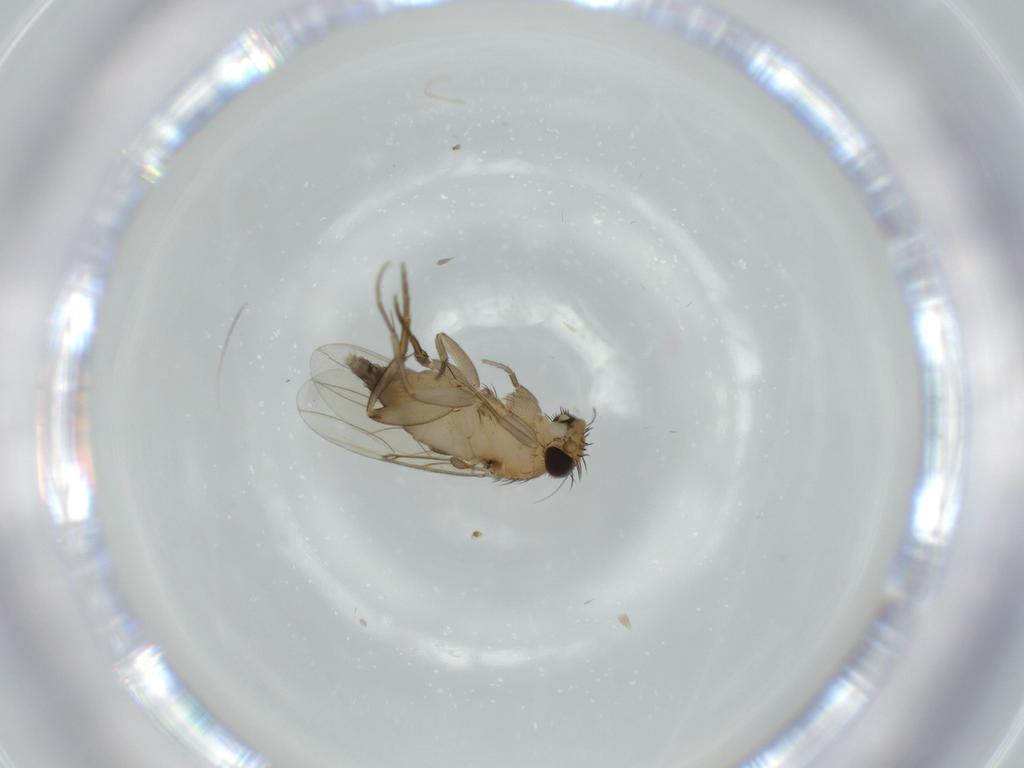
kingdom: Animalia
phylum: Arthropoda
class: Insecta
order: Diptera
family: Phoridae
